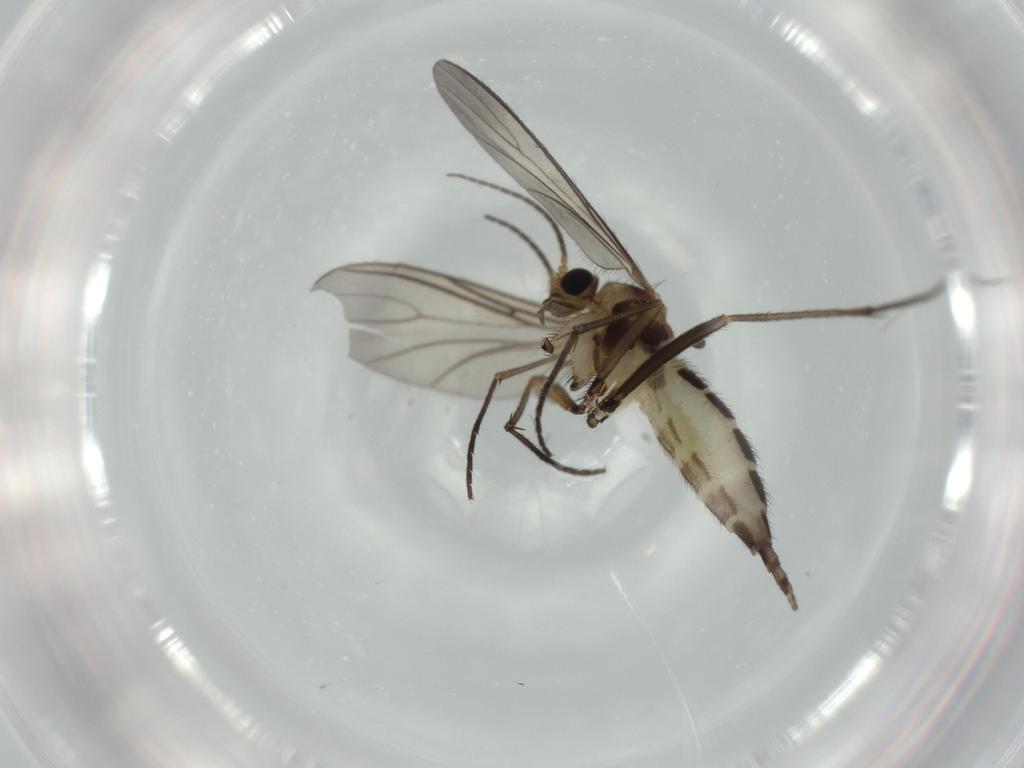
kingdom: Animalia
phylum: Arthropoda
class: Insecta
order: Diptera
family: Sciaridae
